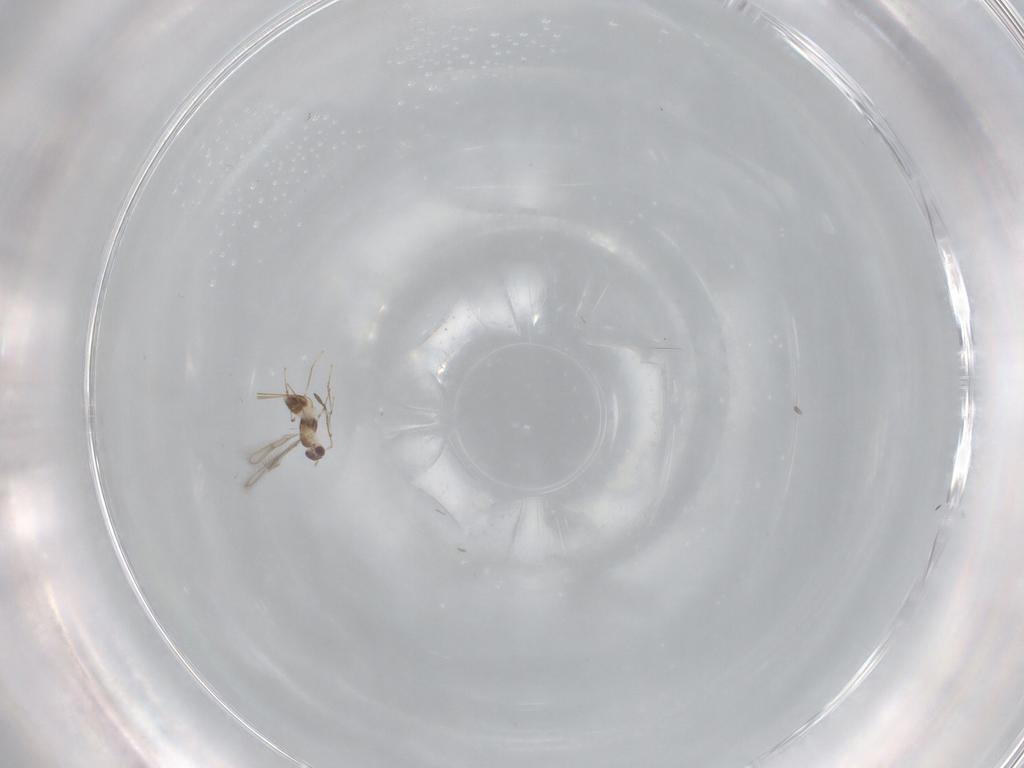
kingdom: Animalia
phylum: Arthropoda
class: Insecta
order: Hymenoptera
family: Mymaridae
